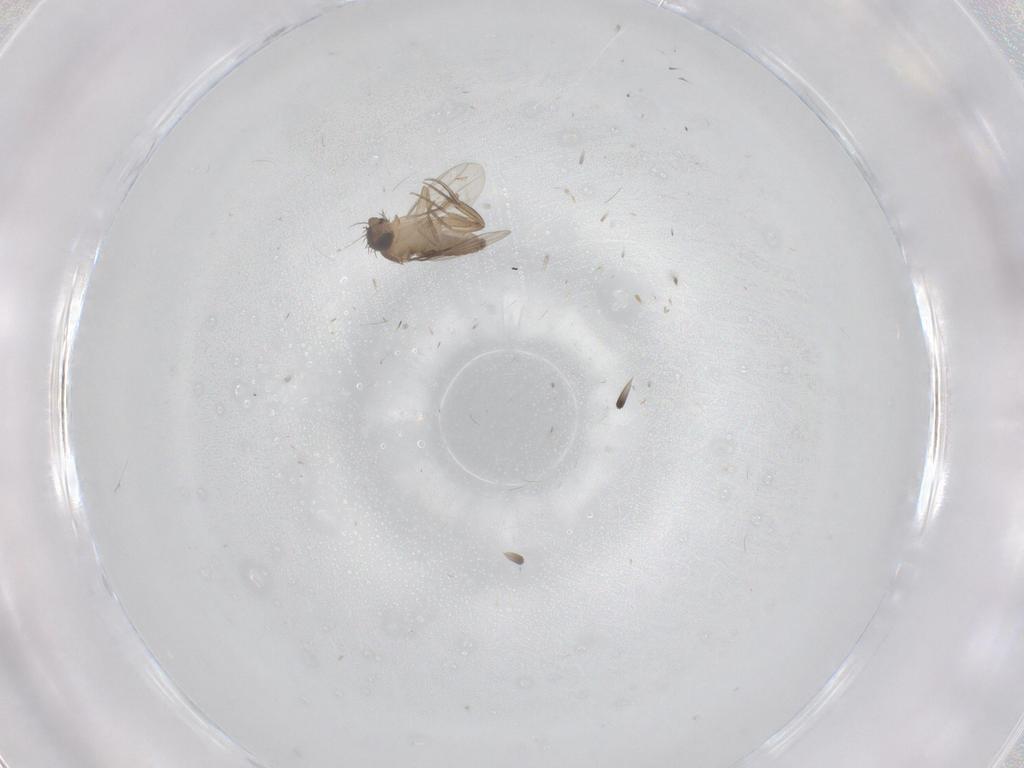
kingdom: Animalia
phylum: Arthropoda
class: Insecta
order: Diptera
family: Phoridae
